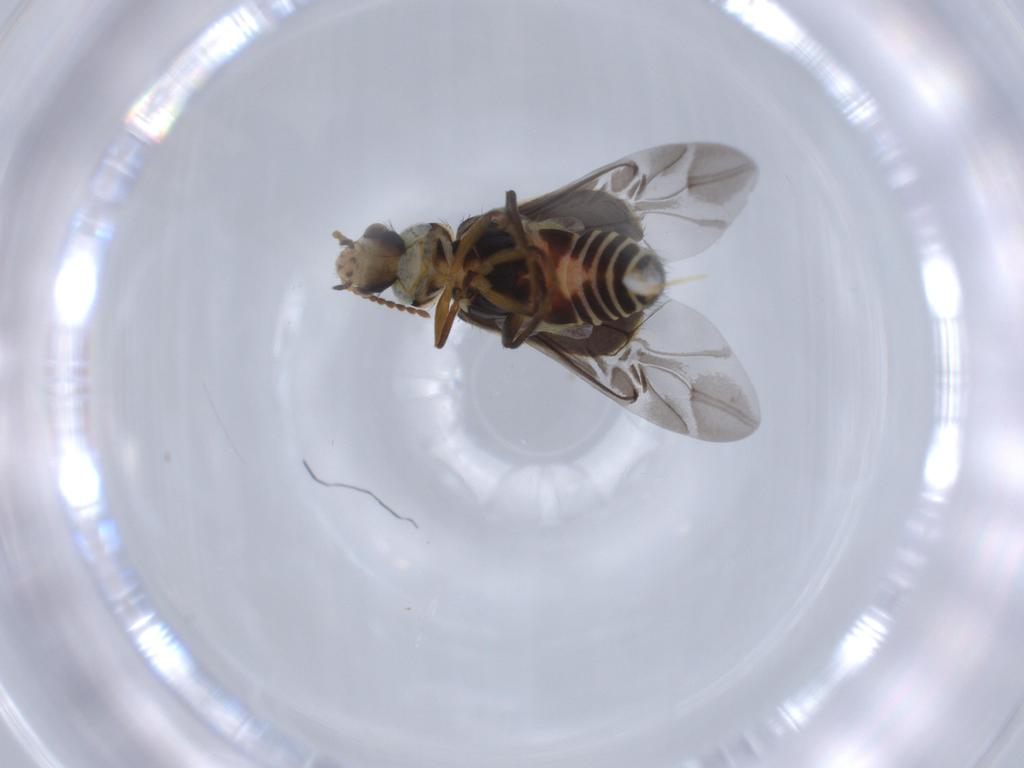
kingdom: Animalia
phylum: Arthropoda
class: Insecta
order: Coleoptera
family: Melyridae
